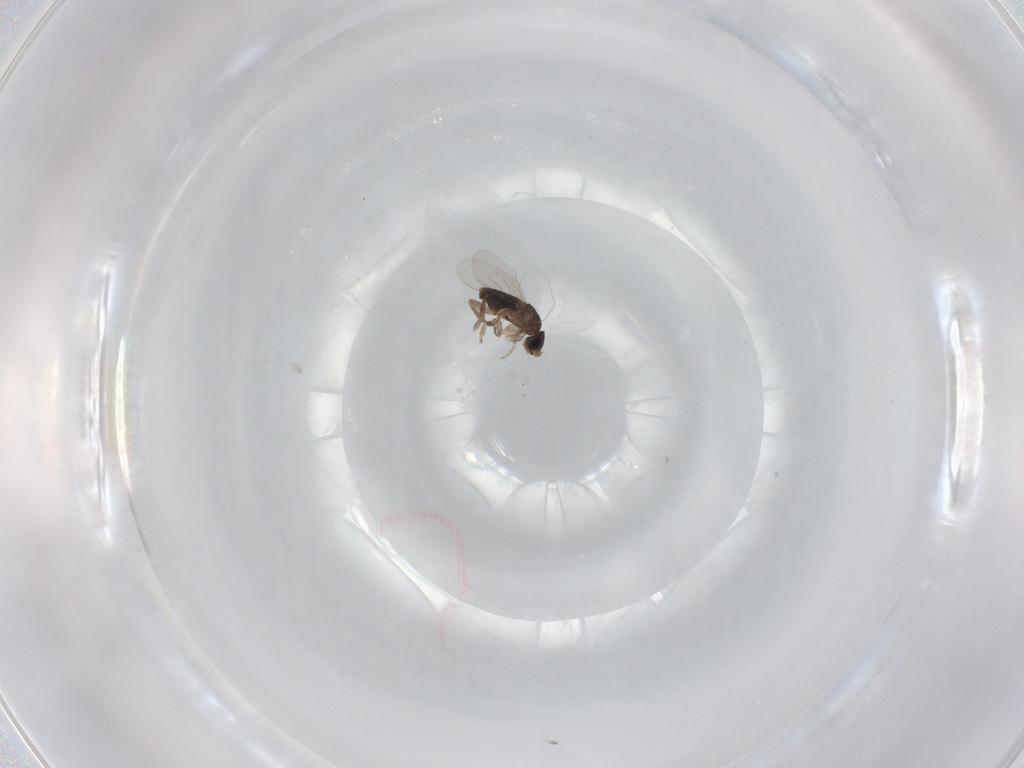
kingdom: Animalia
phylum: Arthropoda
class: Insecta
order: Diptera
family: Phoridae
